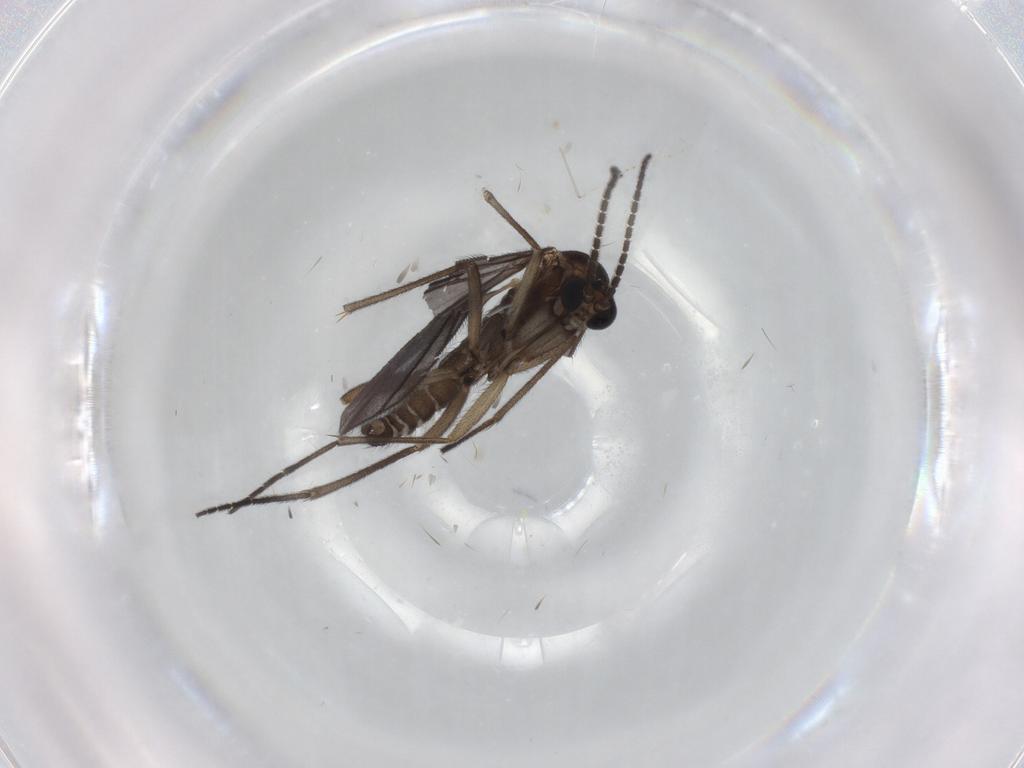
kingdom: Animalia
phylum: Arthropoda
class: Insecta
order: Diptera
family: Sciaridae
